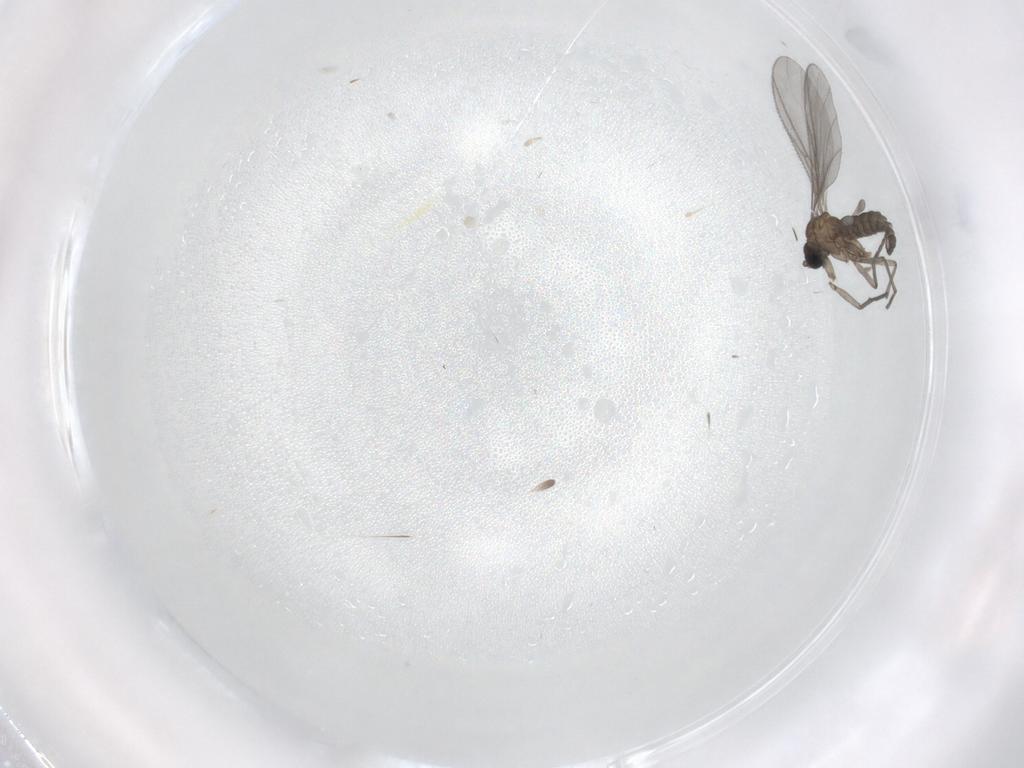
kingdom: Animalia
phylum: Arthropoda
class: Insecta
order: Diptera
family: Sciaridae
